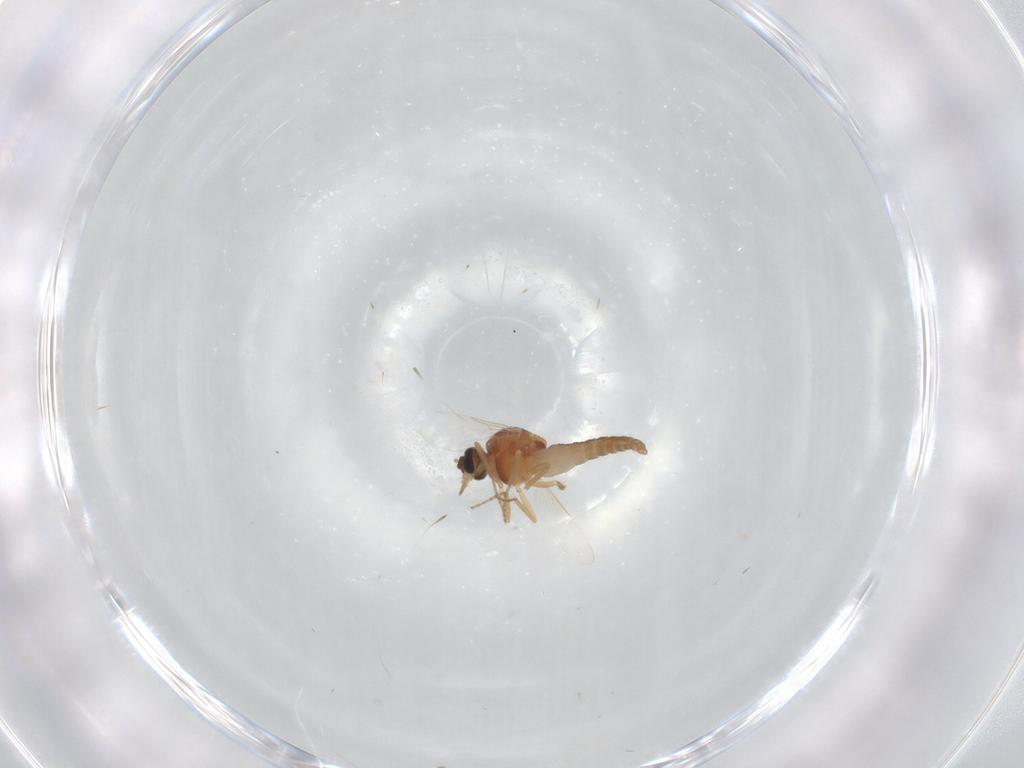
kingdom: Animalia
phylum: Arthropoda
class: Insecta
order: Diptera
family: Ceratopogonidae
